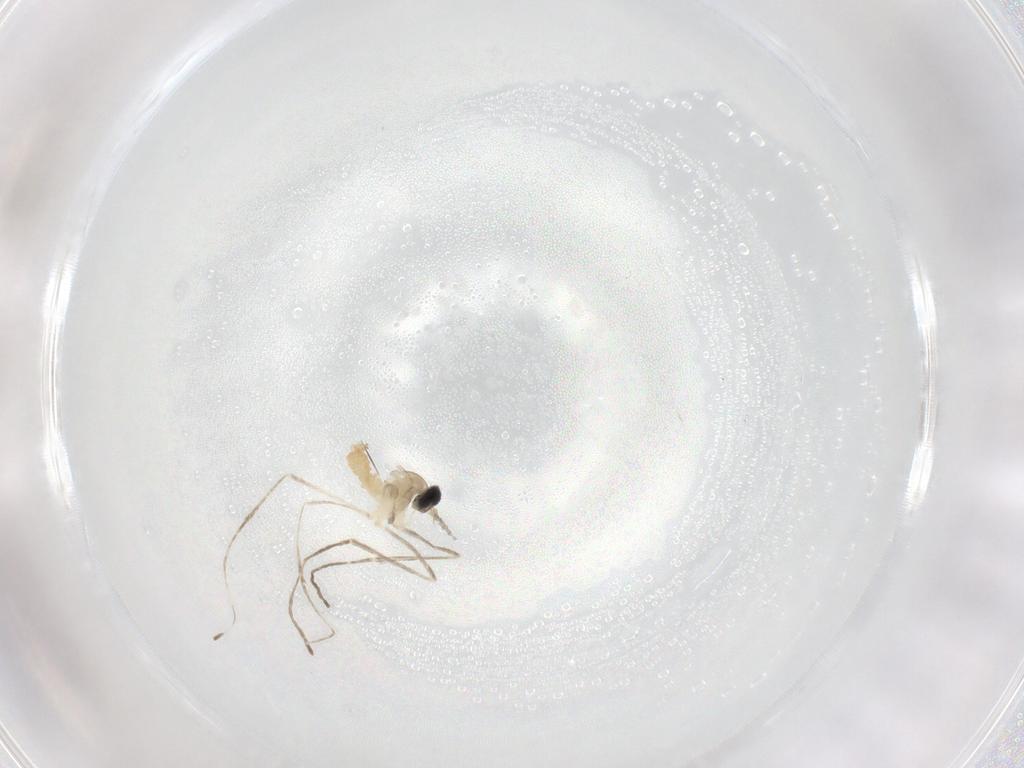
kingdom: Animalia
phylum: Arthropoda
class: Insecta
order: Diptera
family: Cecidomyiidae
